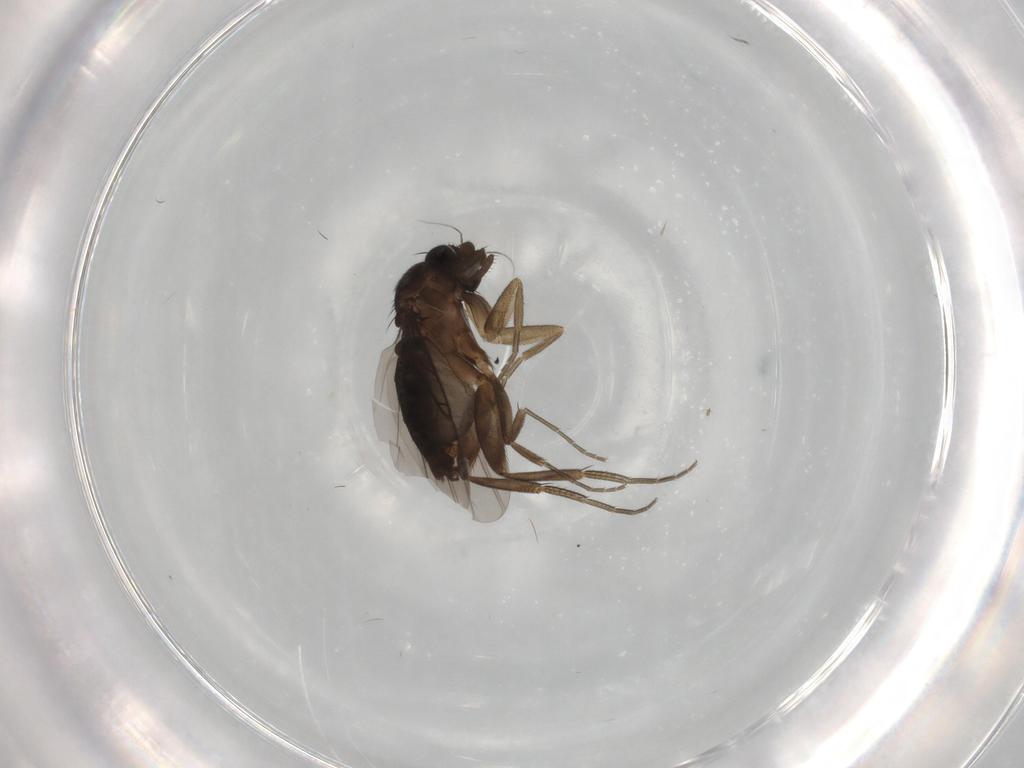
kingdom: Animalia
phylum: Arthropoda
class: Insecta
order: Diptera
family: Phoridae
